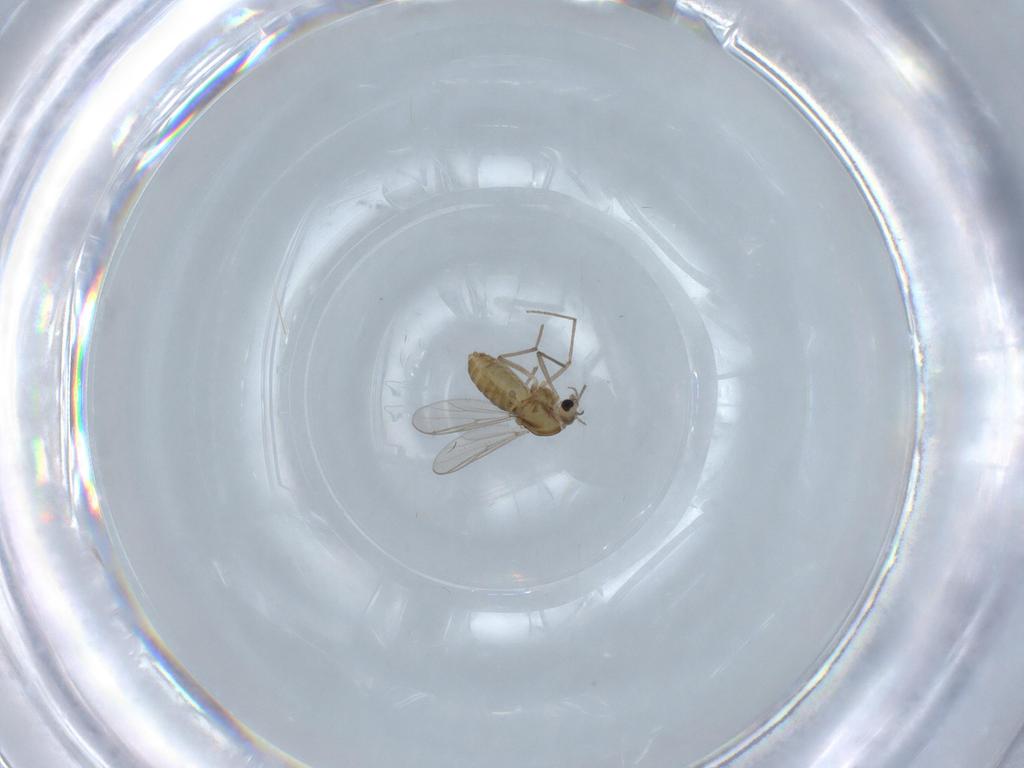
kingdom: Animalia
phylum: Arthropoda
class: Insecta
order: Diptera
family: Chironomidae
